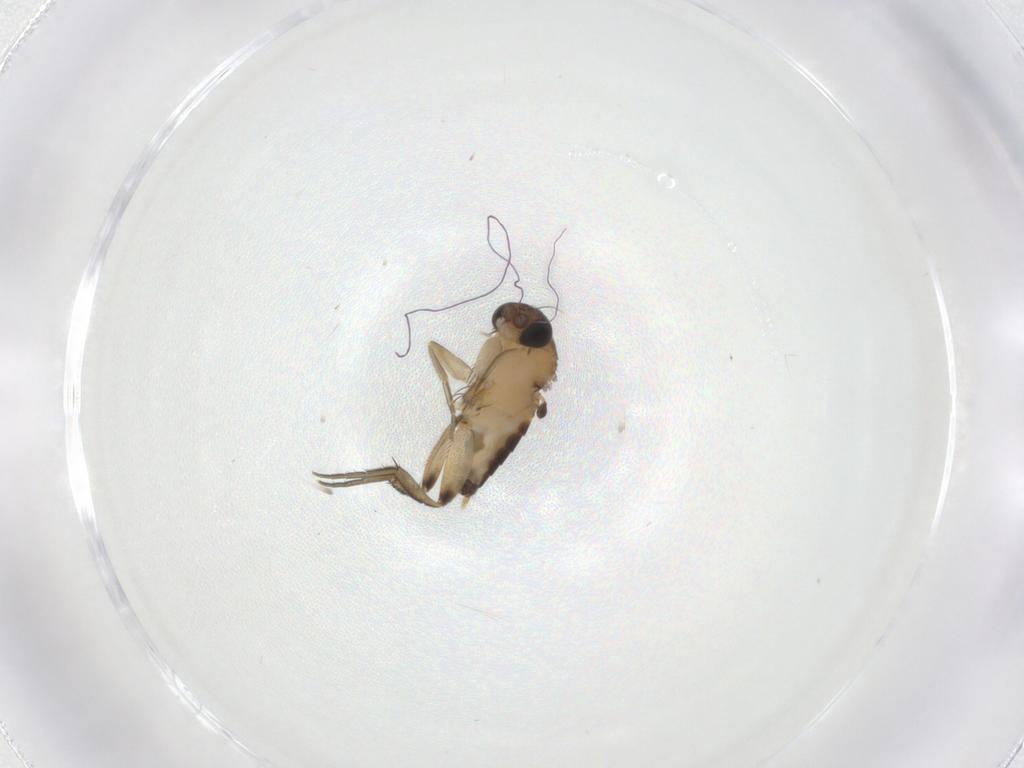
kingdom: Animalia
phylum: Arthropoda
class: Insecta
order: Diptera
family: Phoridae
